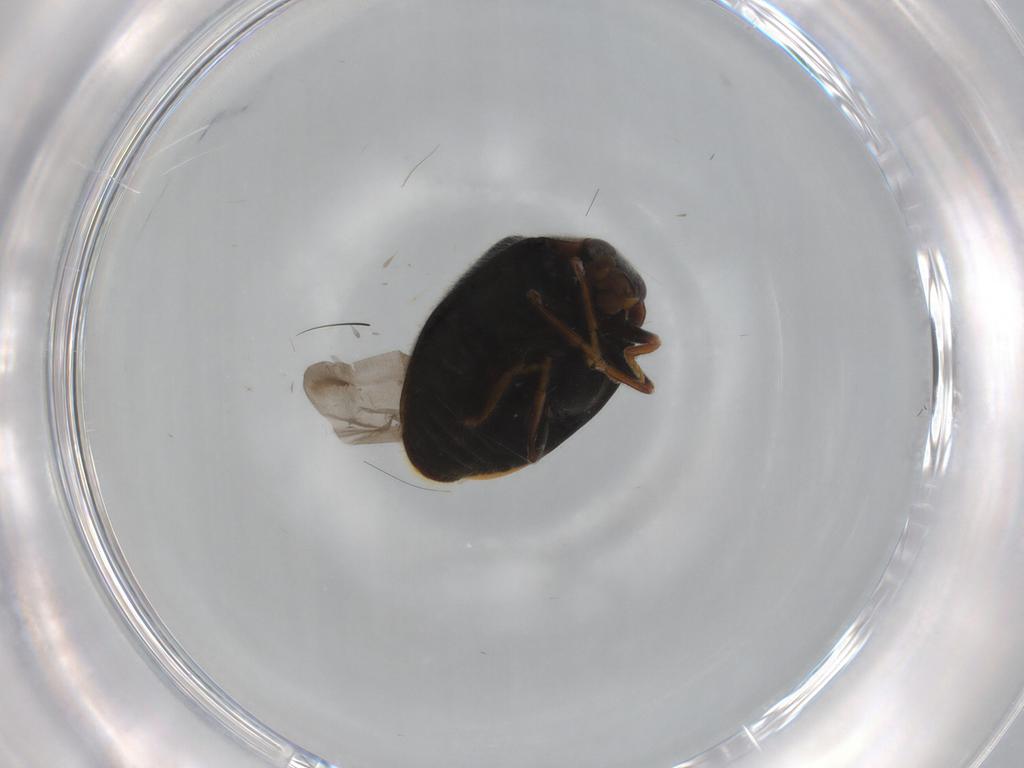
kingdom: Animalia
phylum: Arthropoda
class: Insecta
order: Coleoptera
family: Coccinellidae
